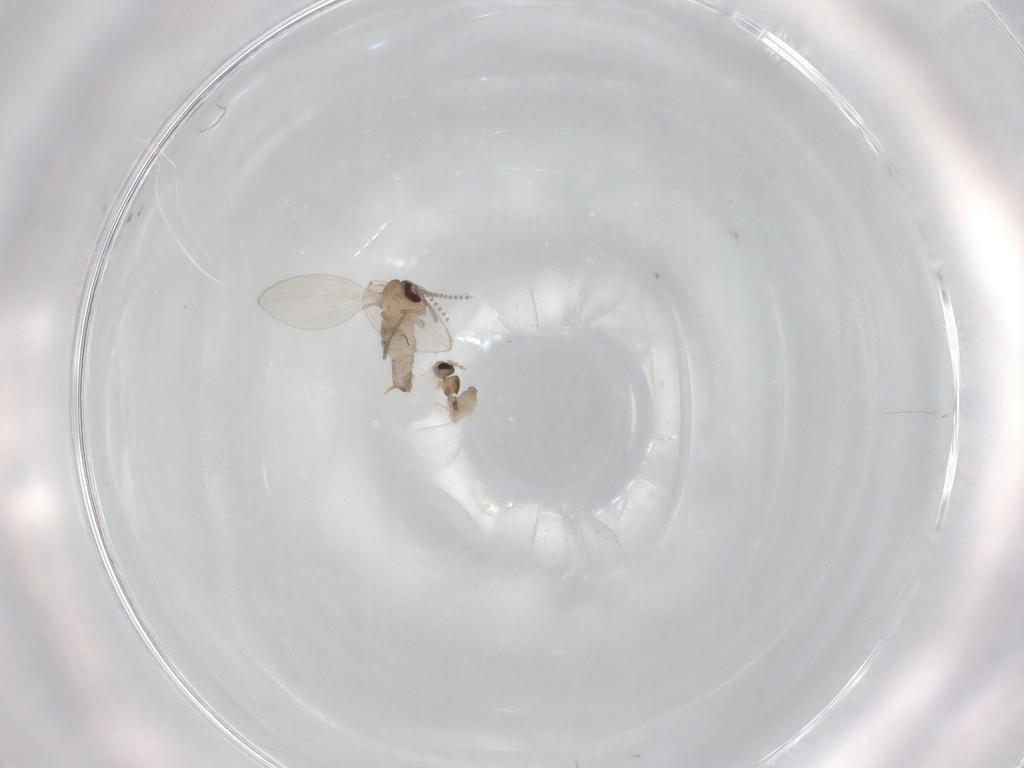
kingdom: Animalia
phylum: Arthropoda
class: Insecta
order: Diptera
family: Psychodidae
